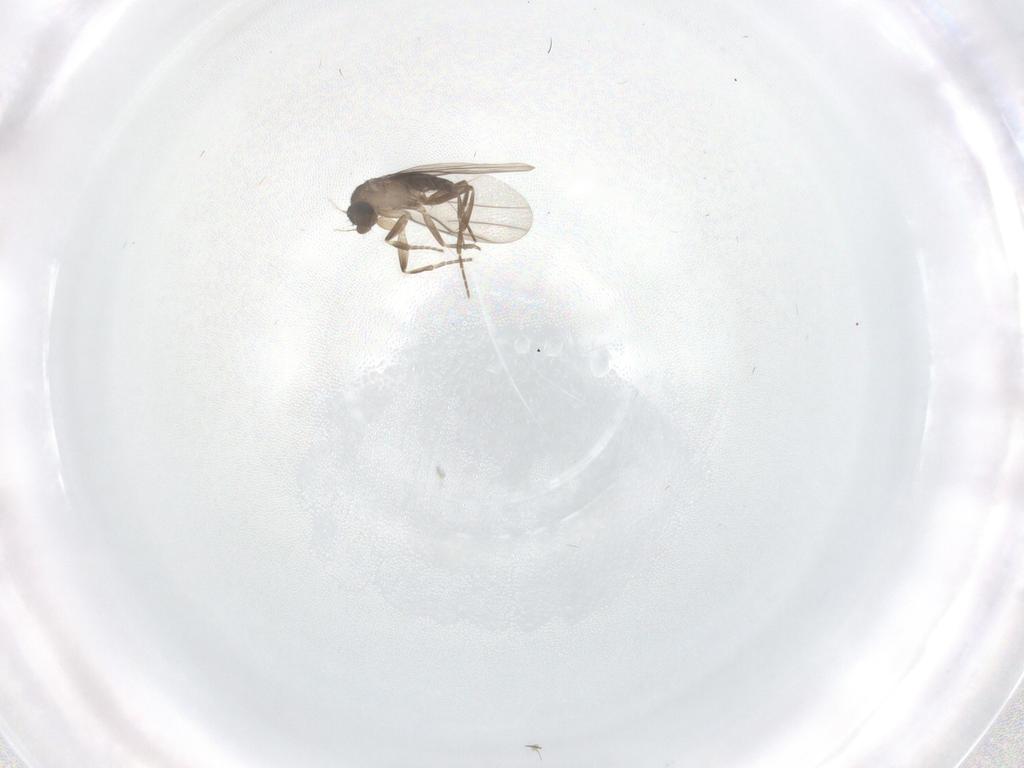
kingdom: Animalia
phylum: Arthropoda
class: Insecta
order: Diptera
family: Phoridae
